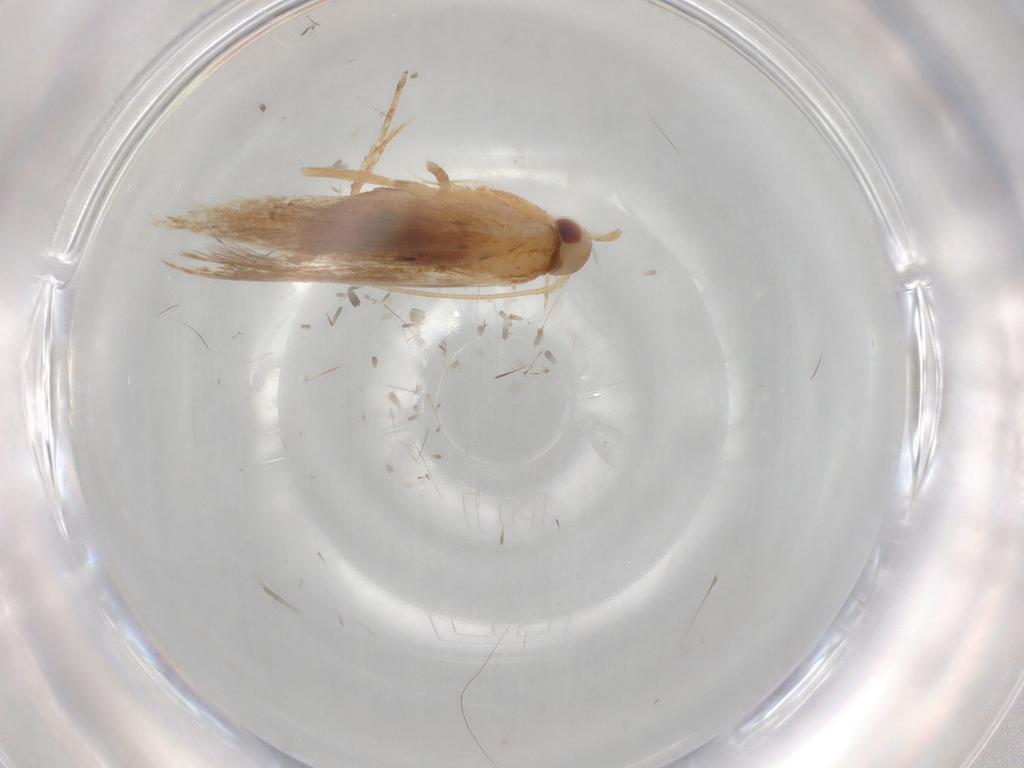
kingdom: Animalia
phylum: Arthropoda
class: Insecta
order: Lepidoptera
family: Cosmopterigidae
